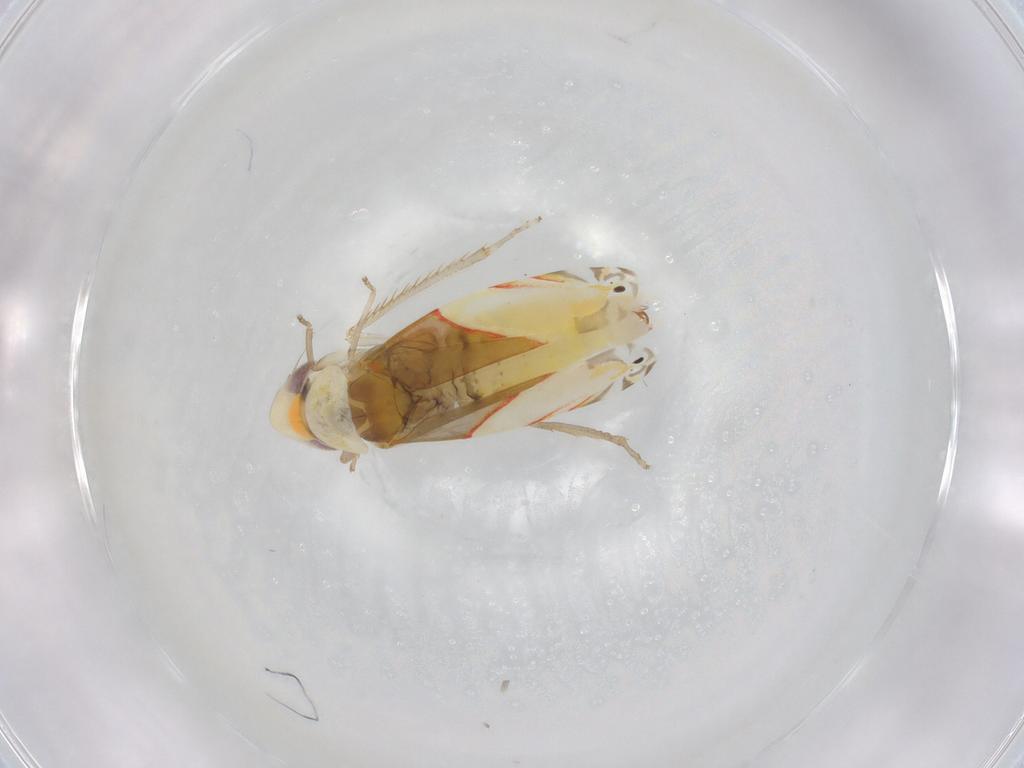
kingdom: Animalia
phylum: Arthropoda
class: Insecta
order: Hemiptera
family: Cicadellidae
